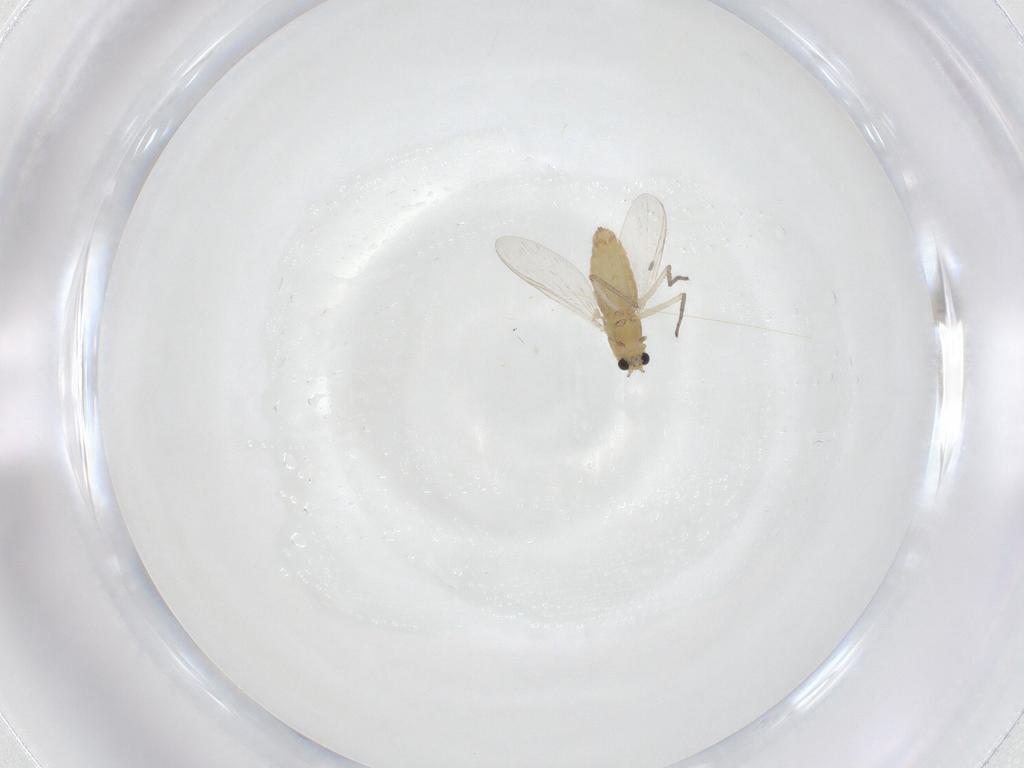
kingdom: Animalia
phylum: Arthropoda
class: Insecta
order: Diptera
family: Chironomidae
